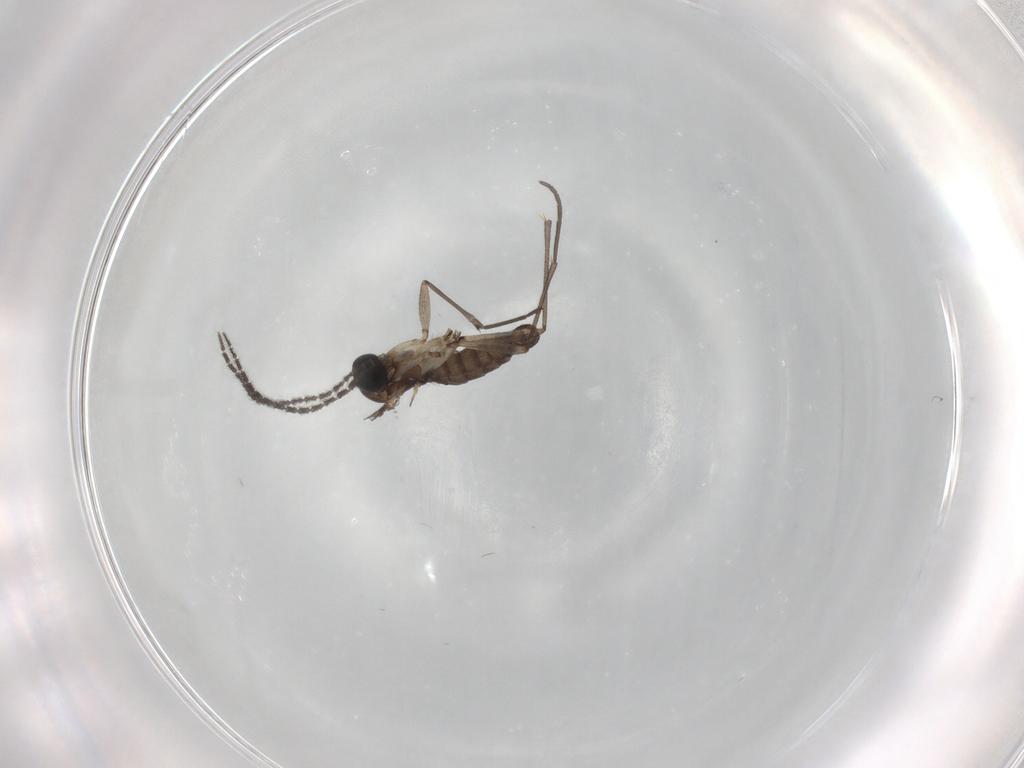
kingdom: Animalia
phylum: Arthropoda
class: Insecta
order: Diptera
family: Sciaridae
